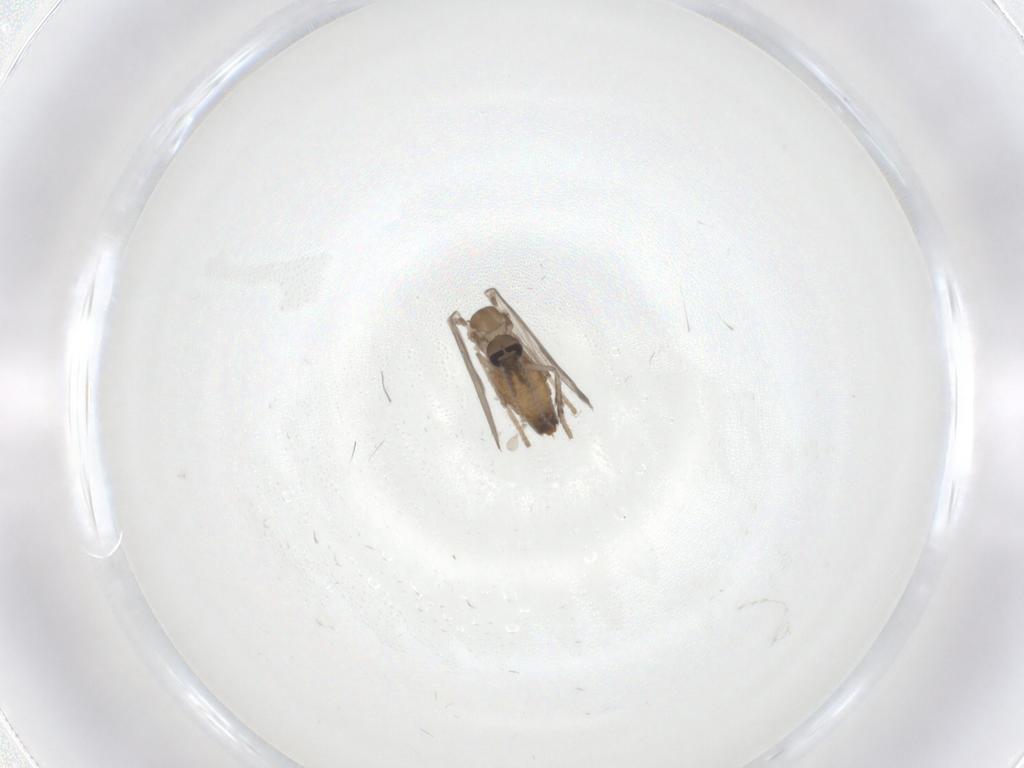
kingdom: Animalia
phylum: Arthropoda
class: Insecta
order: Diptera
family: Psychodidae
